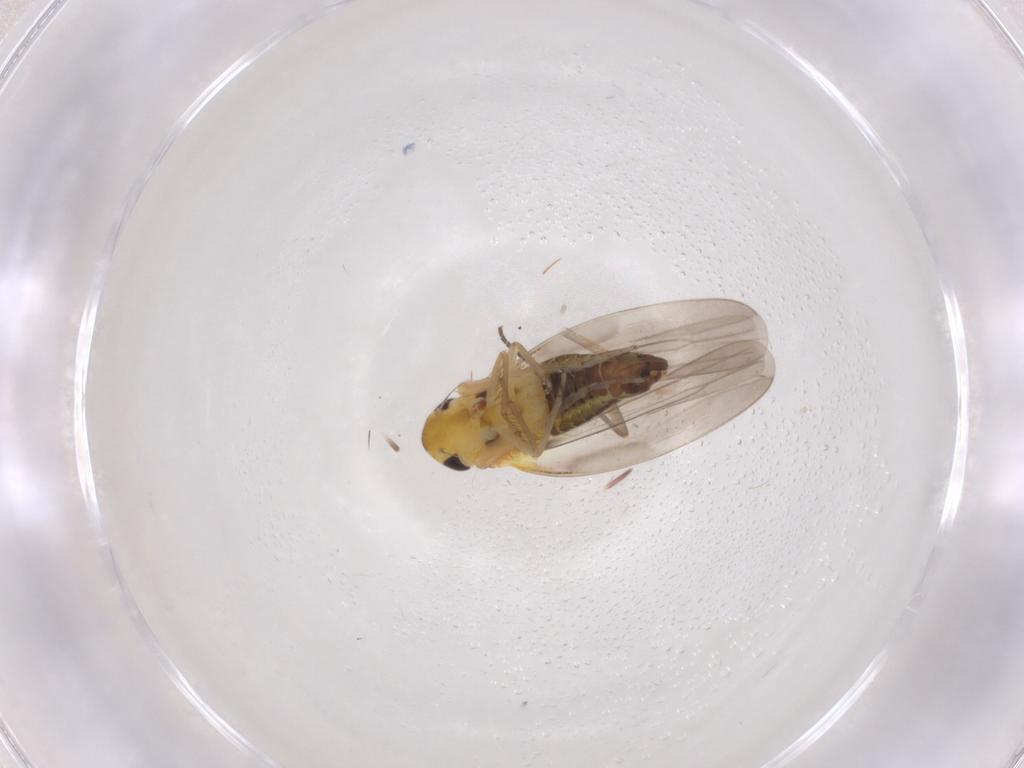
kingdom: Animalia
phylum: Arthropoda
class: Insecta
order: Hemiptera
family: Cicadellidae
